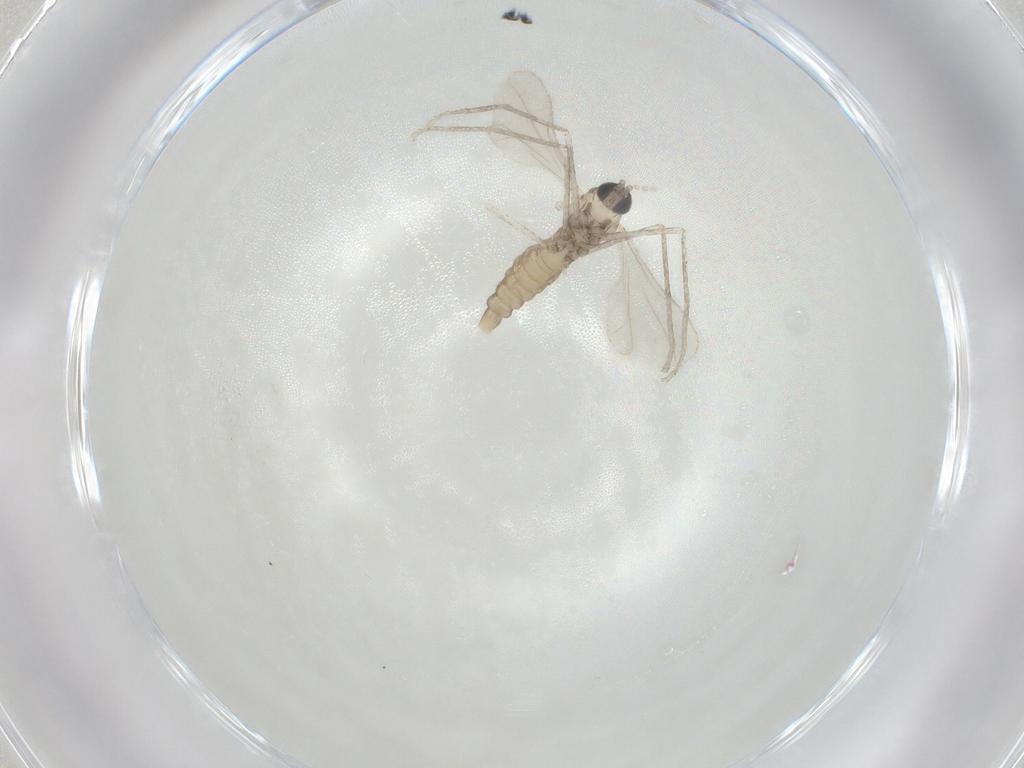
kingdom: Animalia
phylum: Arthropoda
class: Insecta
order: Diptera
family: Cecidomyiidae
